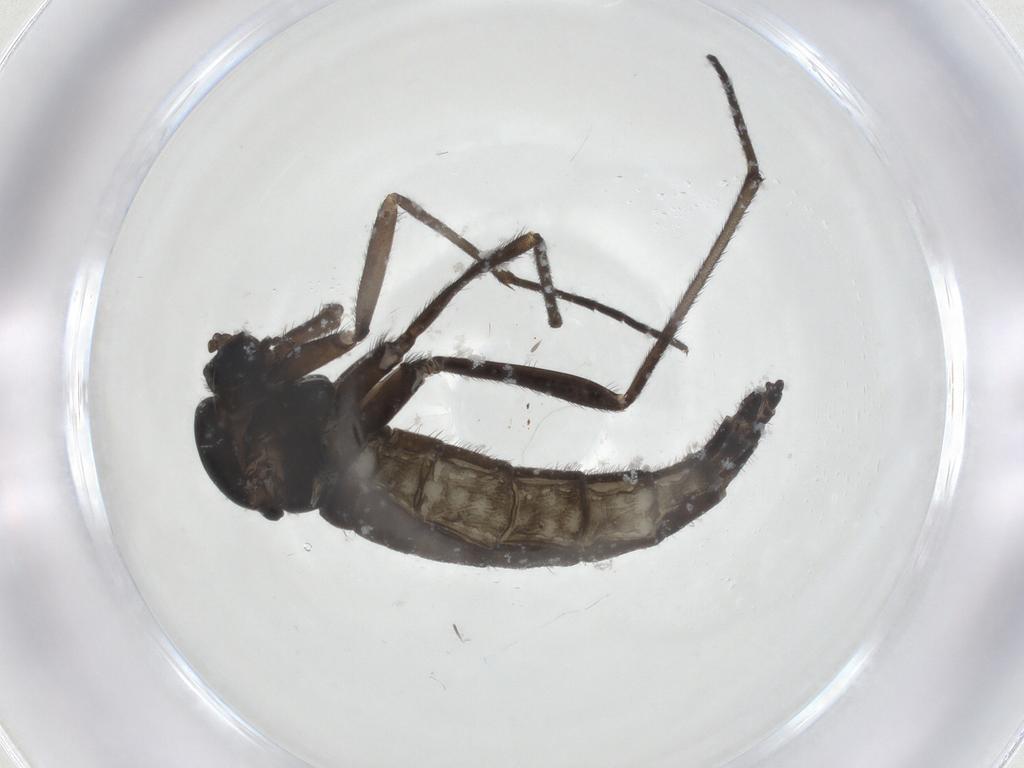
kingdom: Animalia
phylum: Arthropoda
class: Insecta
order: Diptera
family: Sciaridae
